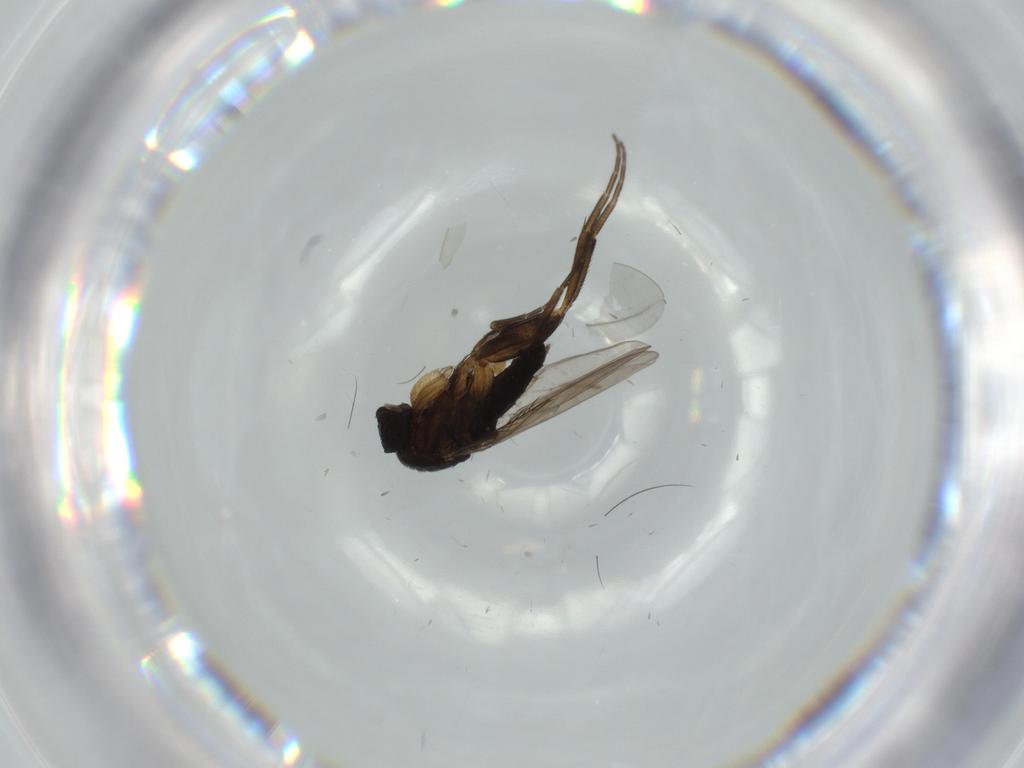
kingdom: Animalia
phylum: Arthropoda
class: Insecta
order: Diptera
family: Phoridae
